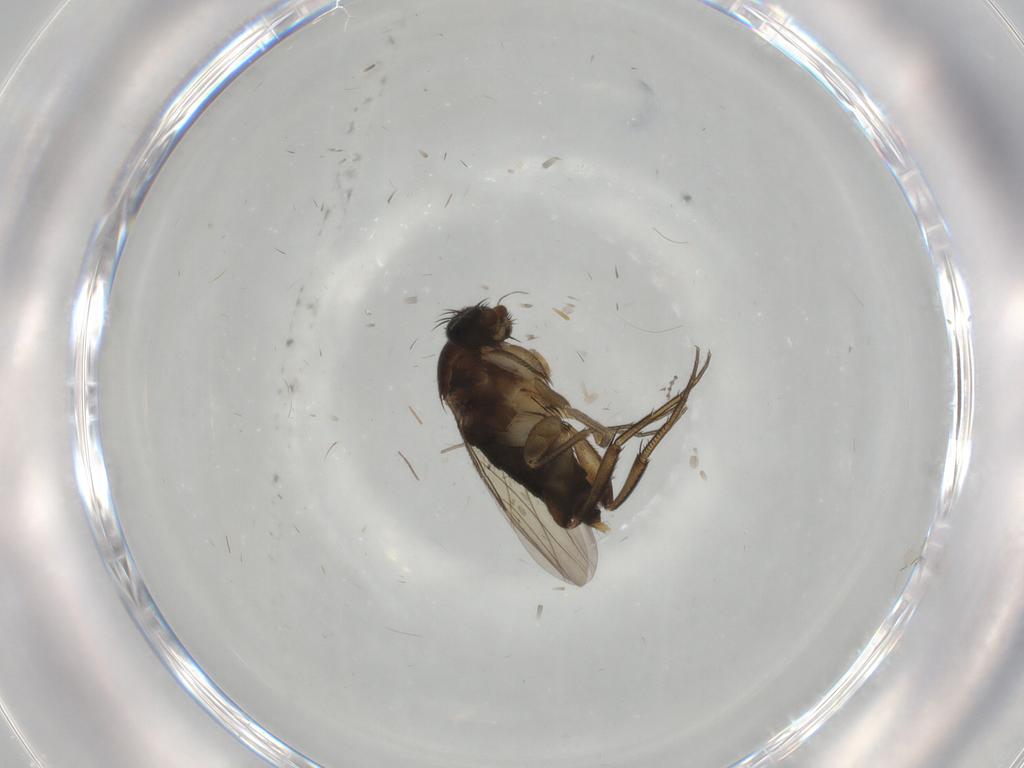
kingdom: Animalia
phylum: Arthropoda
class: Insecta
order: Diptera
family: Phoridae
